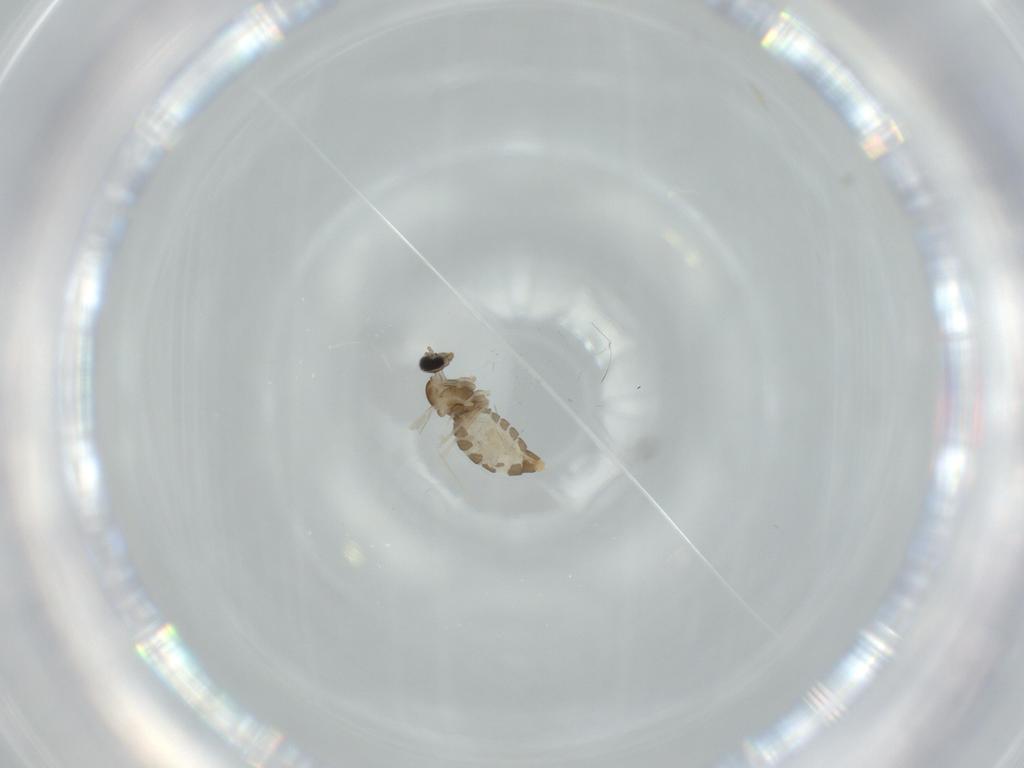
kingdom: Animalia
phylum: Arthropoda
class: Insecta
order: Diptera
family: Cecidomyiidae
